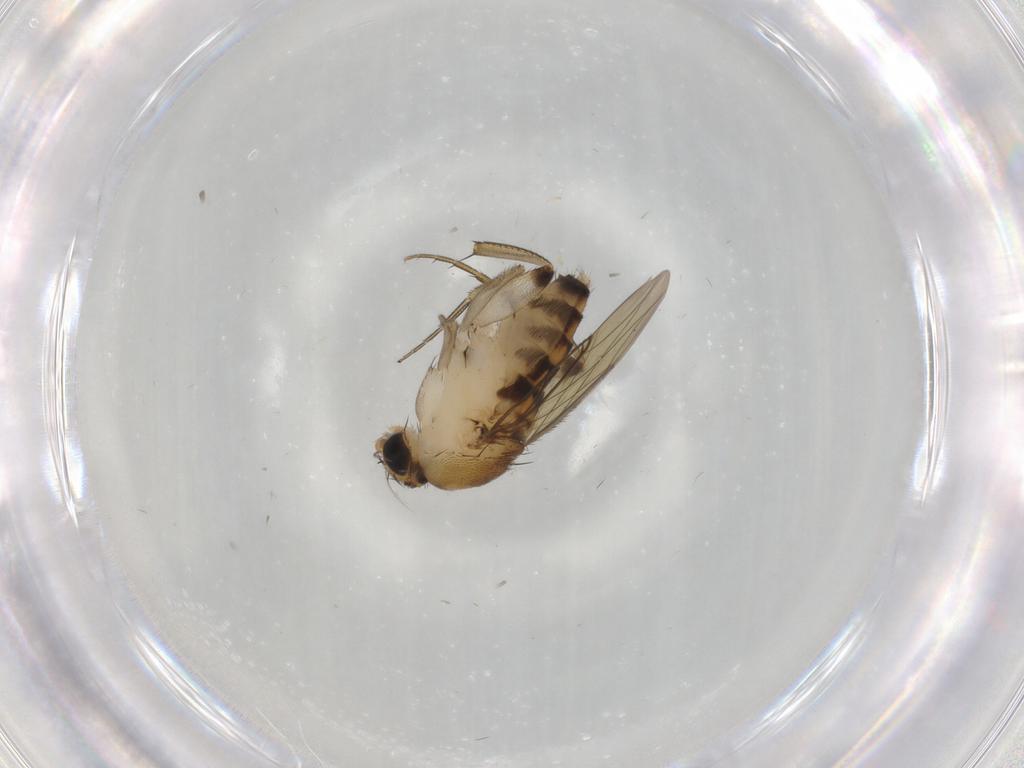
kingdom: Animalia
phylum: Arthropoda
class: Insecta
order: Diptera
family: Phoridae
